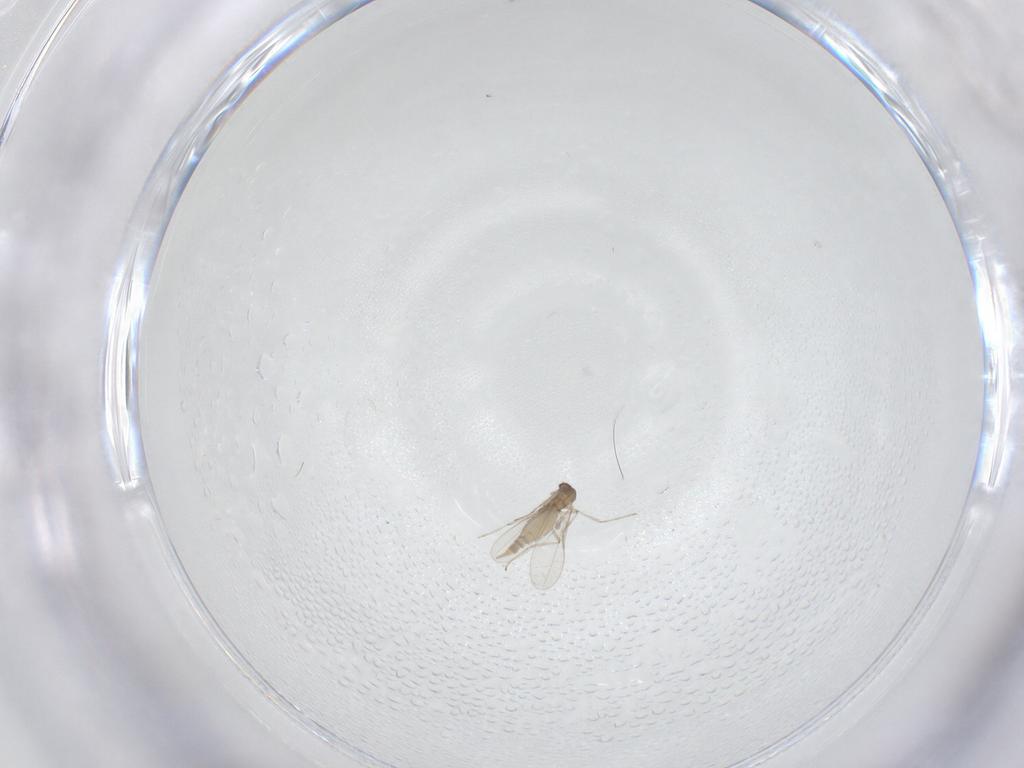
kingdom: Animalia
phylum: Arthropoda
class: Insecta
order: Diptera
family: Cecidomyiidae
